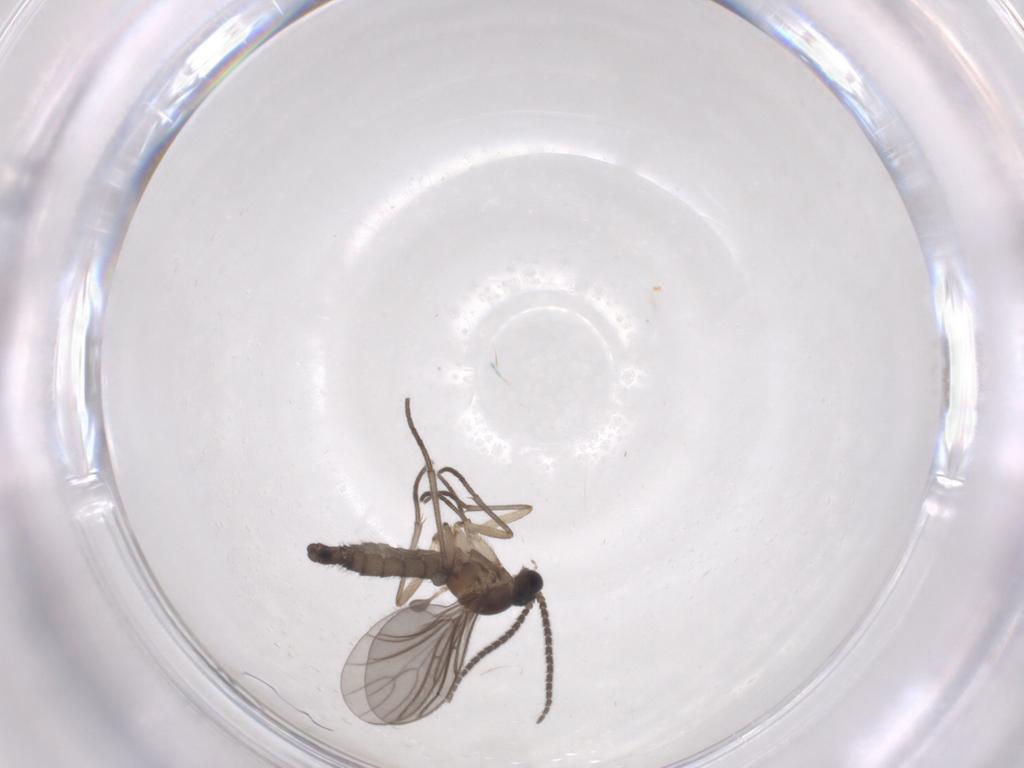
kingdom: Animalia
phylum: Arthropoda
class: Insecta
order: Diptera
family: Sciaridae
